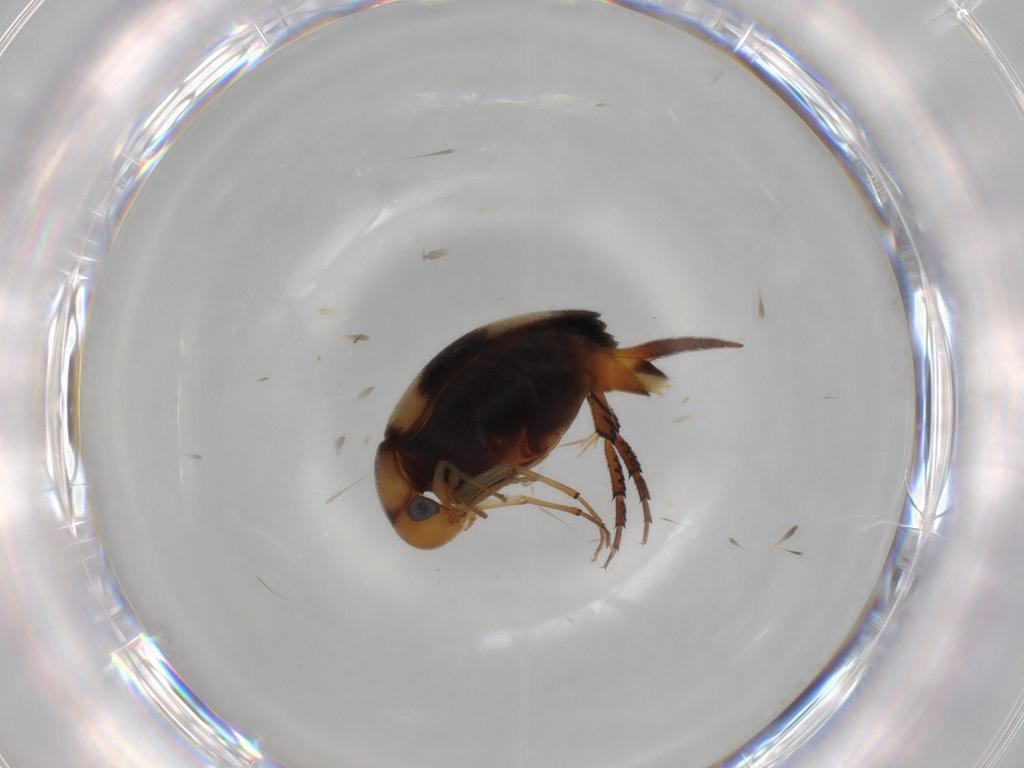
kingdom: Animalia
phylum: Arthropoda
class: Insecta
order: Coleoptera
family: Mordellidae
